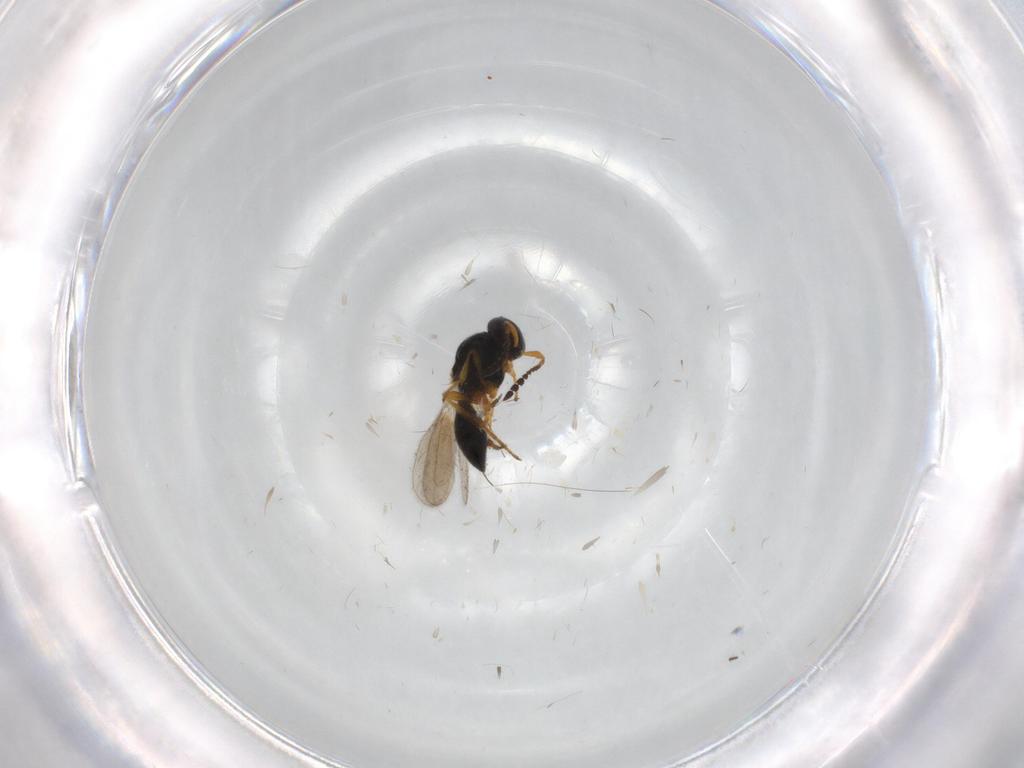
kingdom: Animalia
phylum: Arthropoda
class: Insecta
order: Hymenoptera
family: Platygastridae
